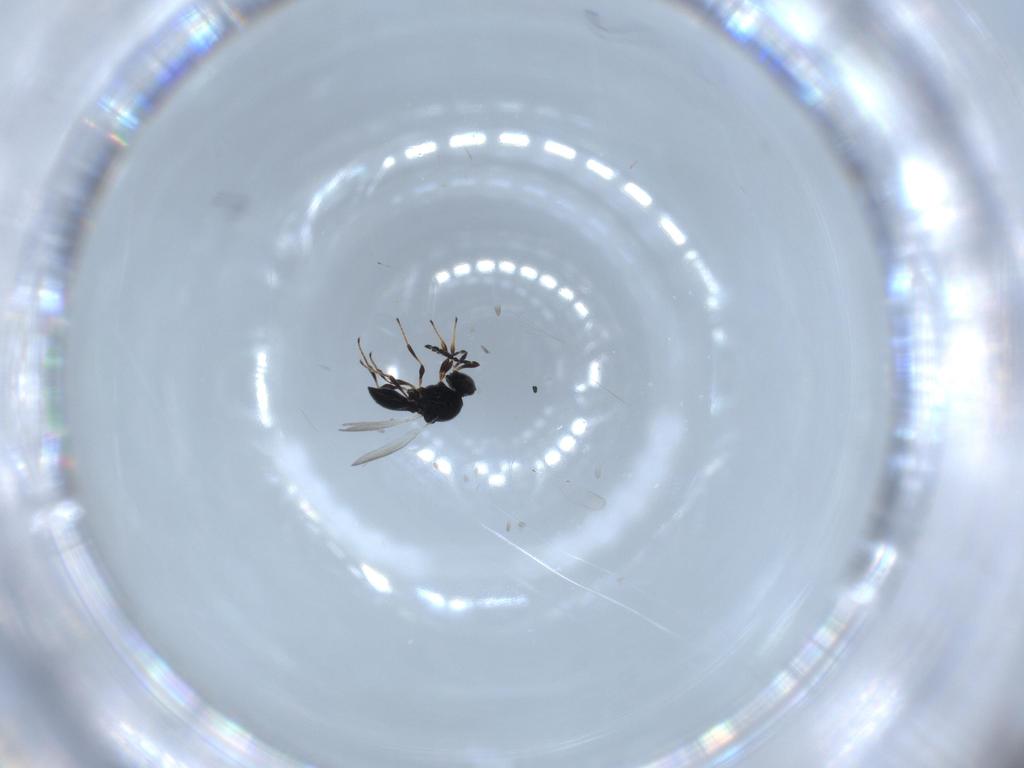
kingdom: Animalia
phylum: Arthropoda
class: Insecta
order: Hymenoptera
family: Platygastridae
